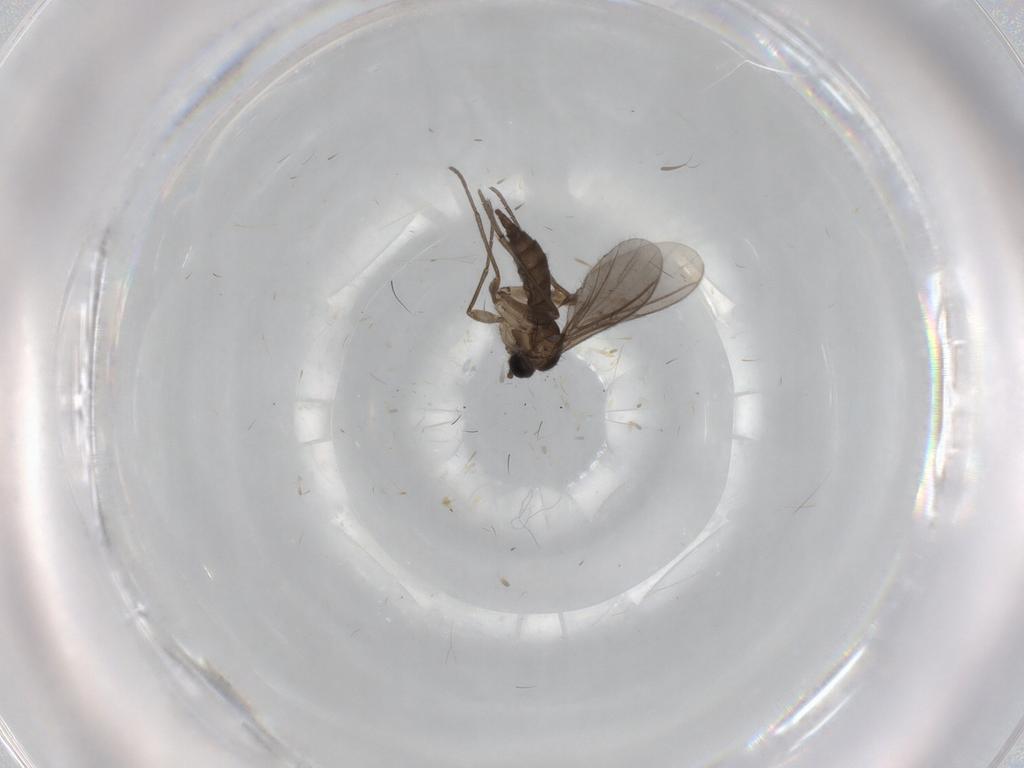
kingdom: Animalia
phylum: Arthropoda
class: Insecta
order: Diptera
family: Sciaridae
